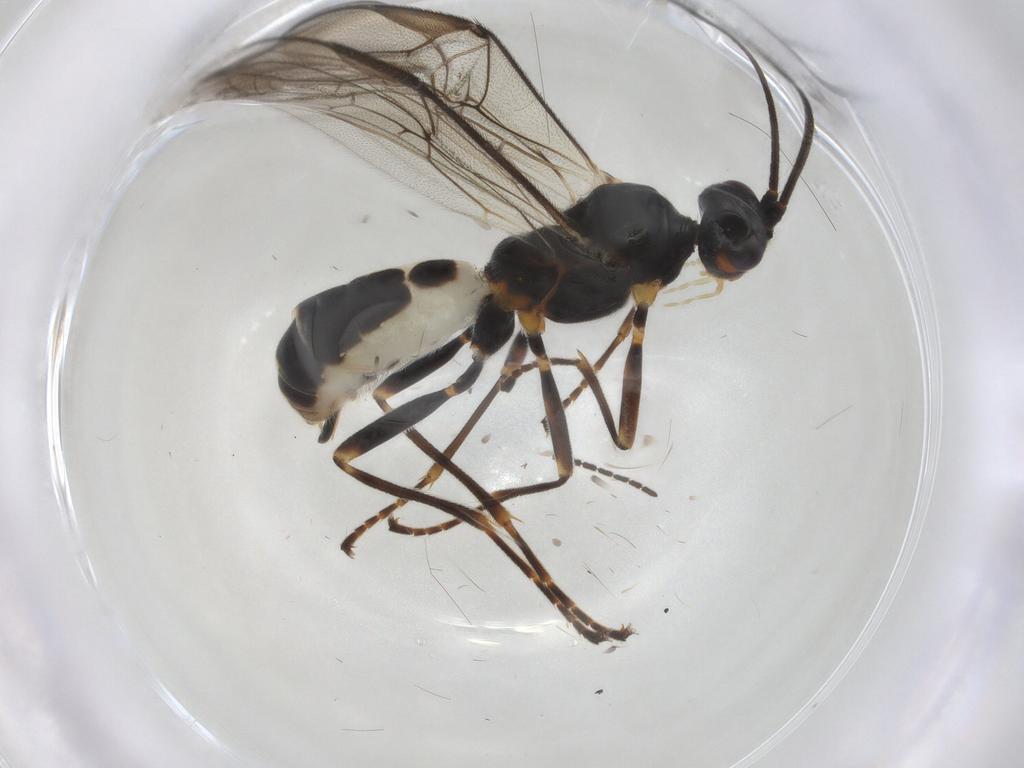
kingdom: Animalia
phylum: Arthropoda
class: Insecta
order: Hymenoptera
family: Braconidae
